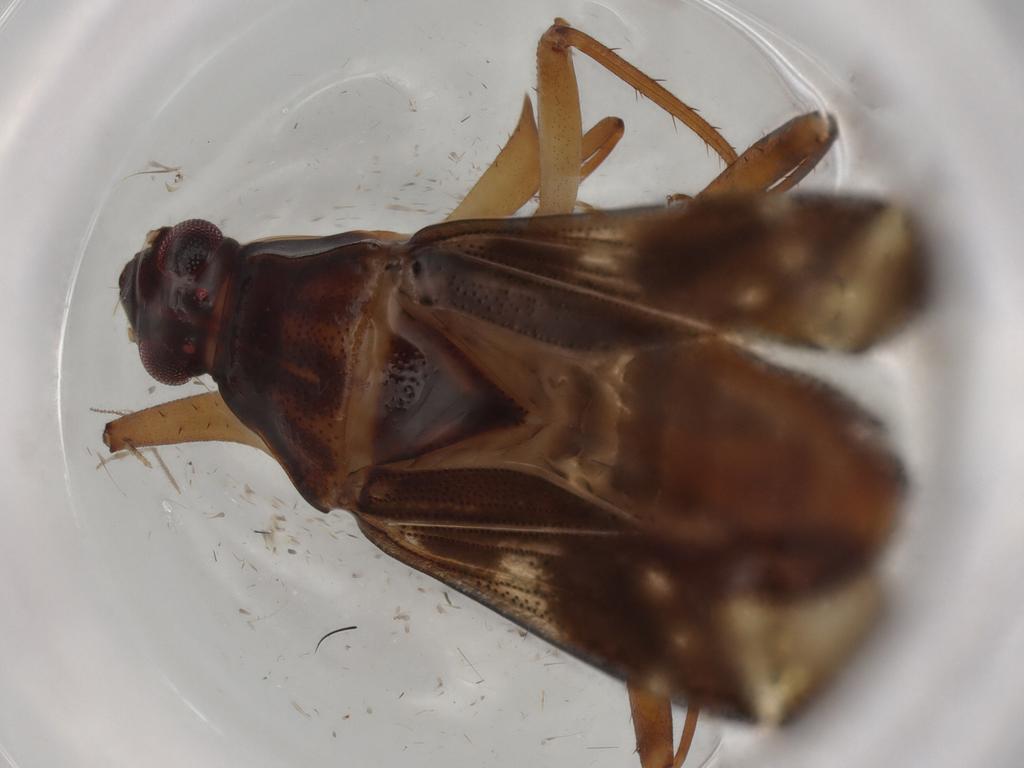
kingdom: Animalia
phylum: Arthropoda
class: Insecta
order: Hemiptera
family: Rhyparochromidae
